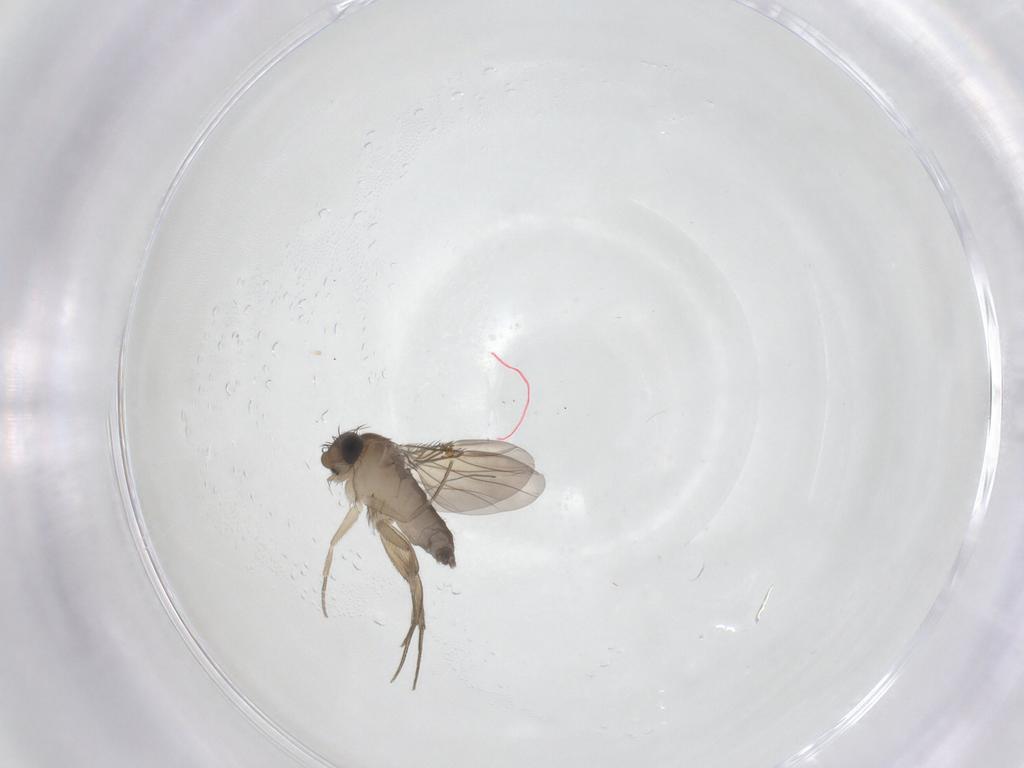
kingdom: Animalia
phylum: Arthropoda
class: Insecta
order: Diptera
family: Phoridae
